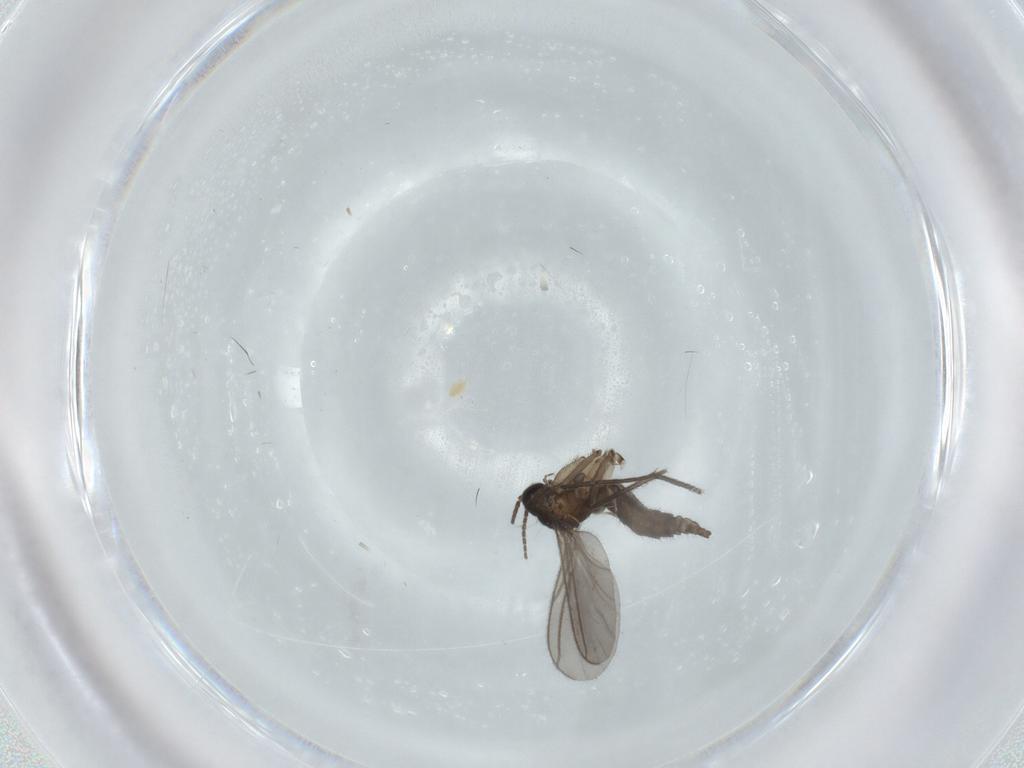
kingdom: Animalia
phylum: Arthropoda
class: Insecta
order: Diptera
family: Sciaridae
